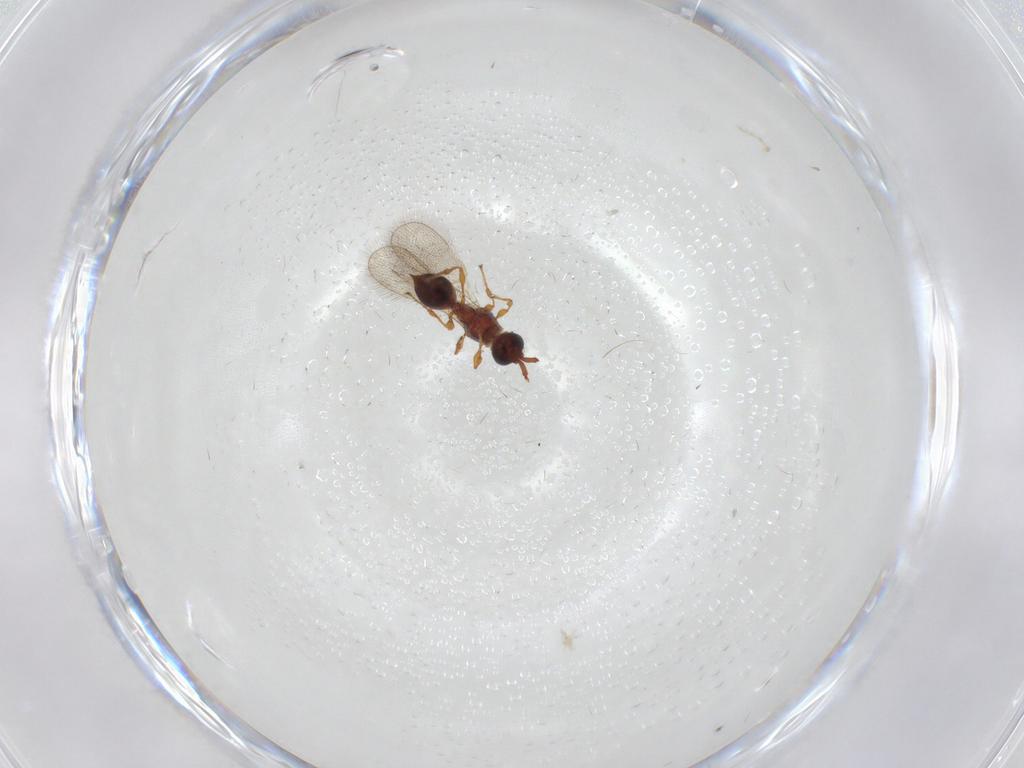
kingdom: Animalia
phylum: Arthropoda
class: Insecta
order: Hymenoptera
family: Diapriidae
